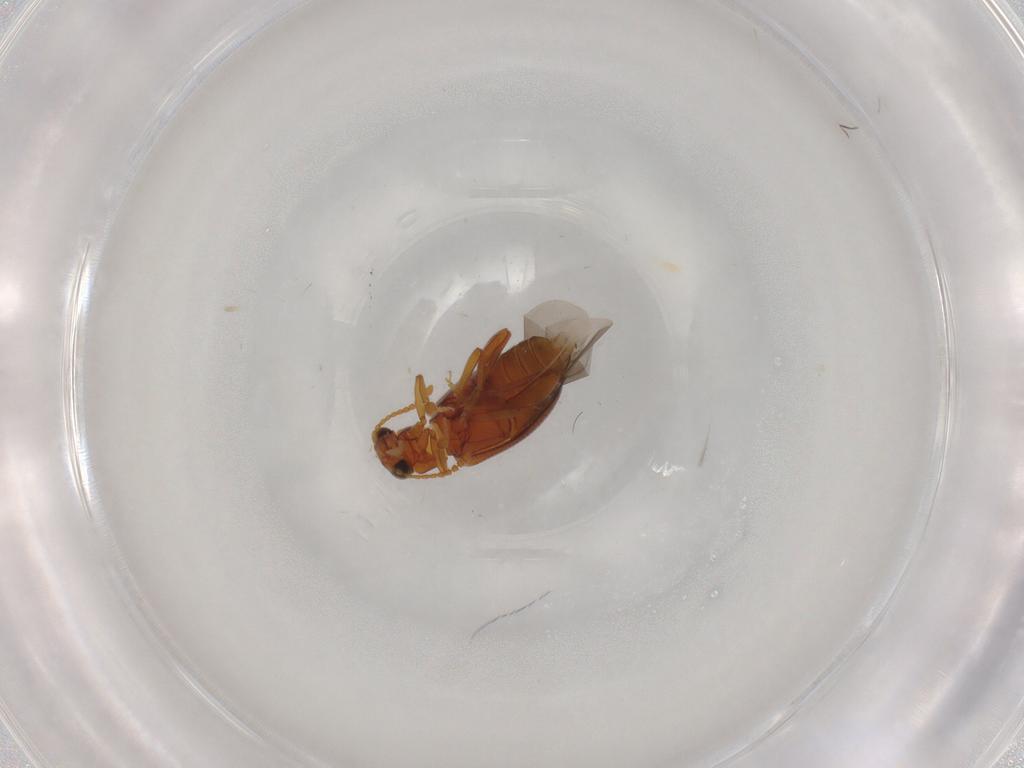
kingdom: Animalia
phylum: Arthropoda
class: Insecta
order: Coleoptera
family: Aderidae
